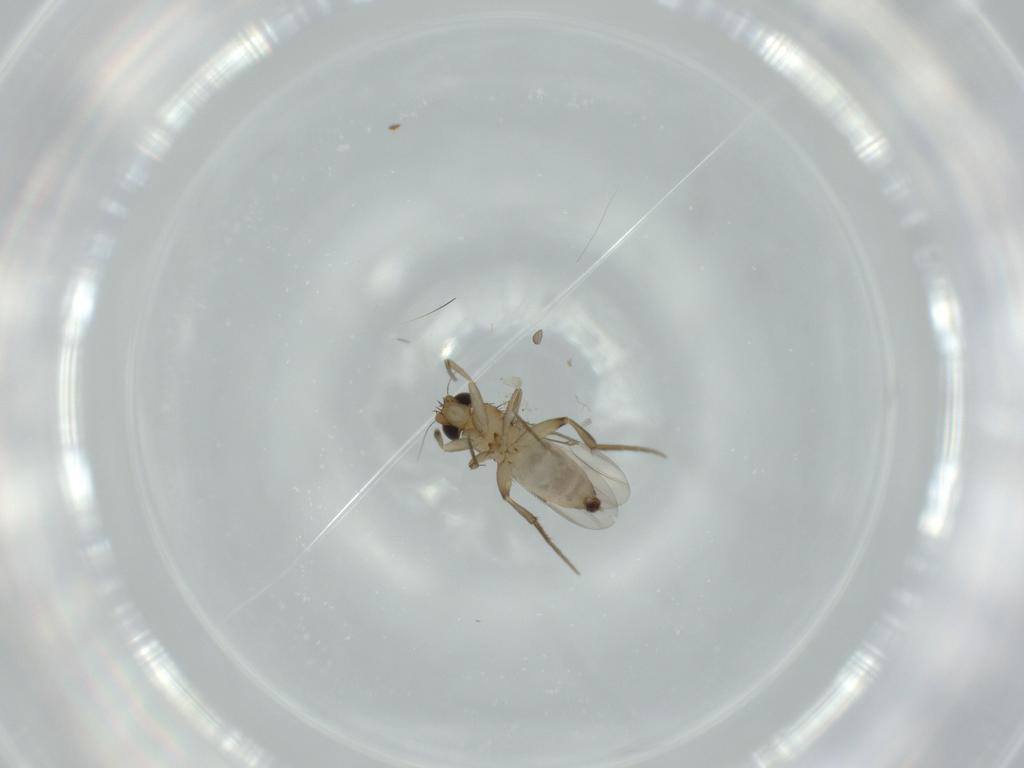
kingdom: Animalia
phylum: Arthropoda
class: Insecta
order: Diptera
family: Phoridae
